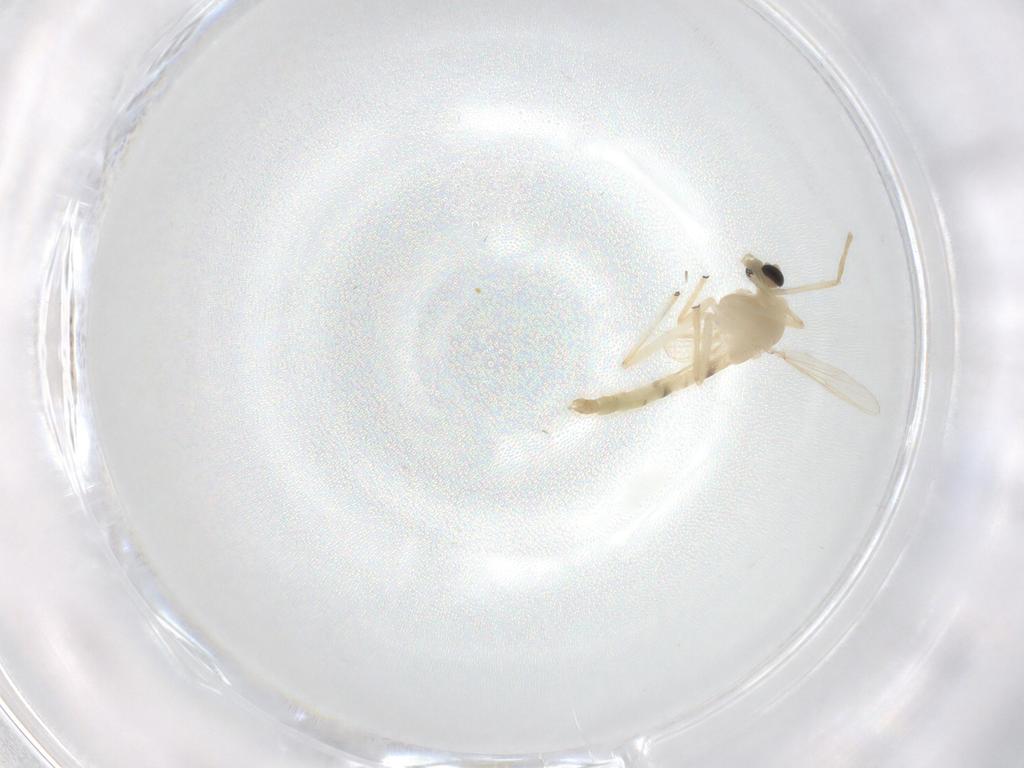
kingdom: Animalia
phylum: Arthropoda
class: Insecta
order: Diptera
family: Chironomidae
